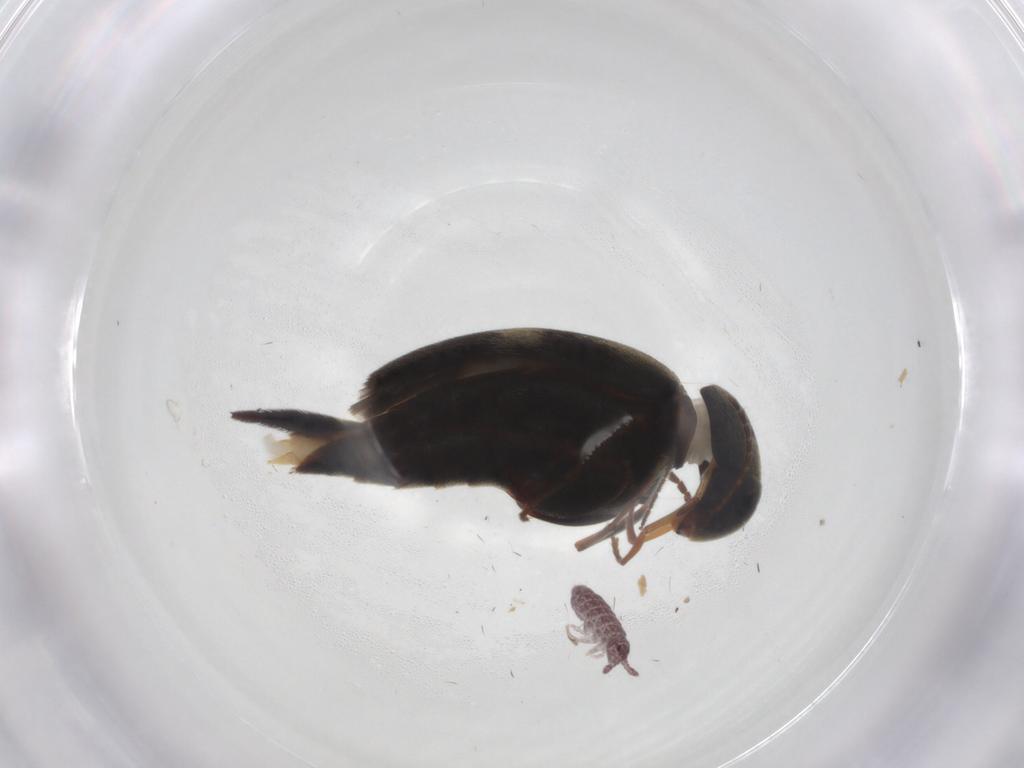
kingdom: Animalia
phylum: Arthropoda
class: Insecta
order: Coleoptera
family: Mordellidae
